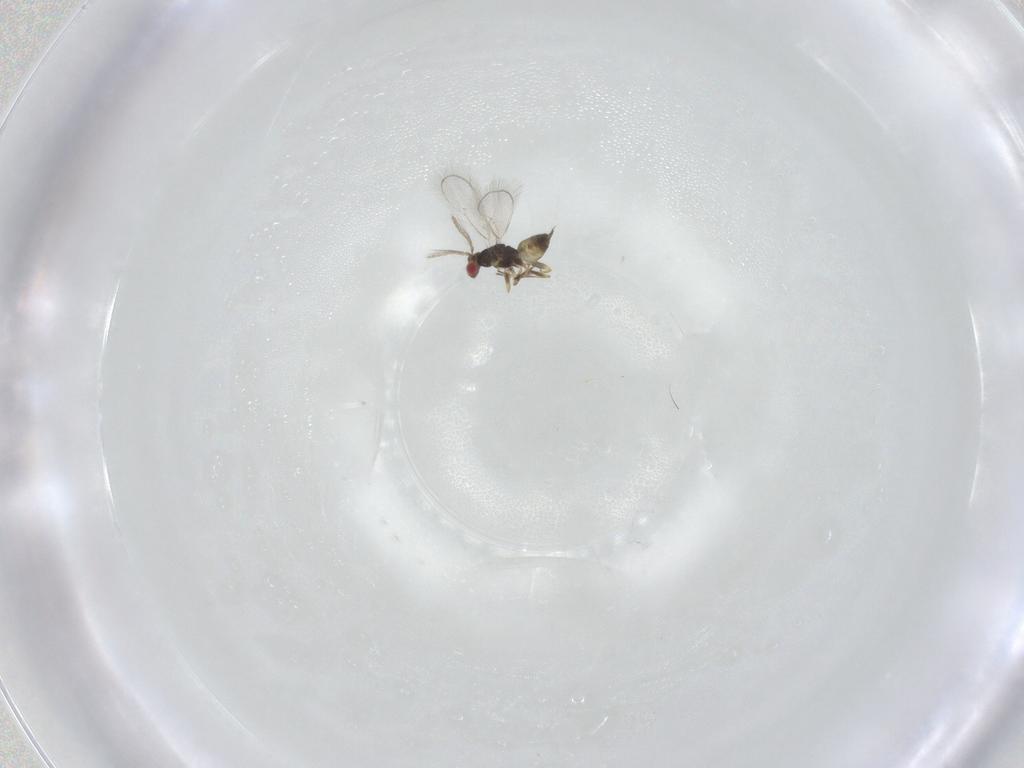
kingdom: Animalia
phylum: Arthropoda
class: Insecta
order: Hymenoptera
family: Eulophidae
